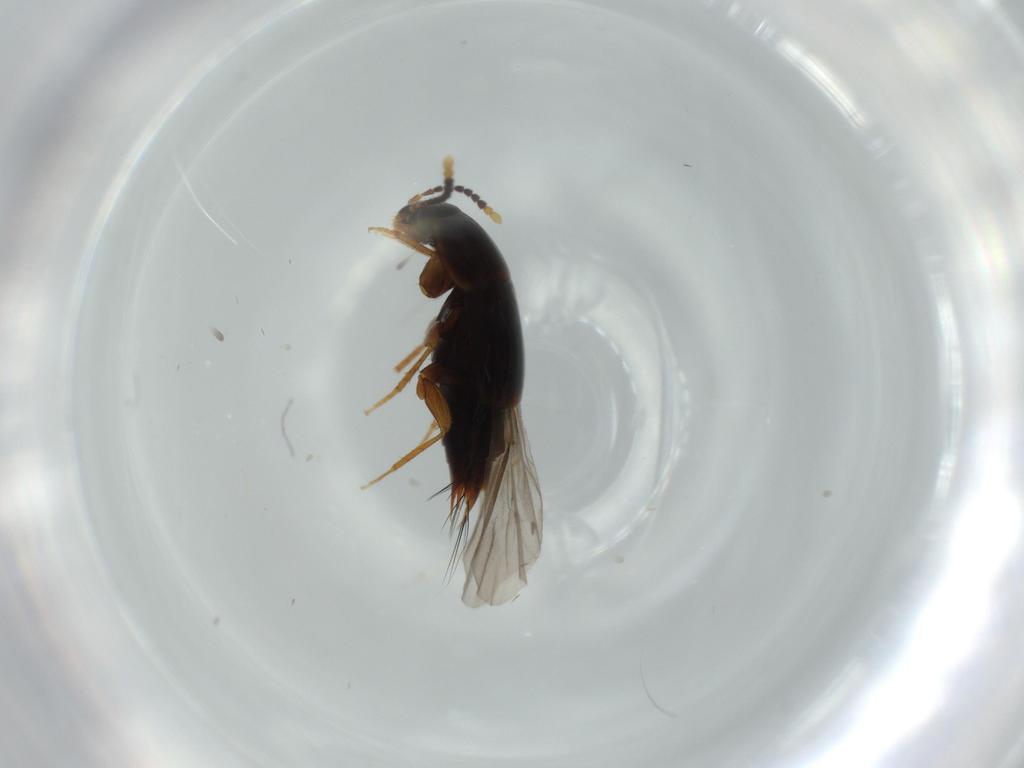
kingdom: Animalia
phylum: Arthropoda
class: Insecta
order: Coleoptera
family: Staphylinidae
